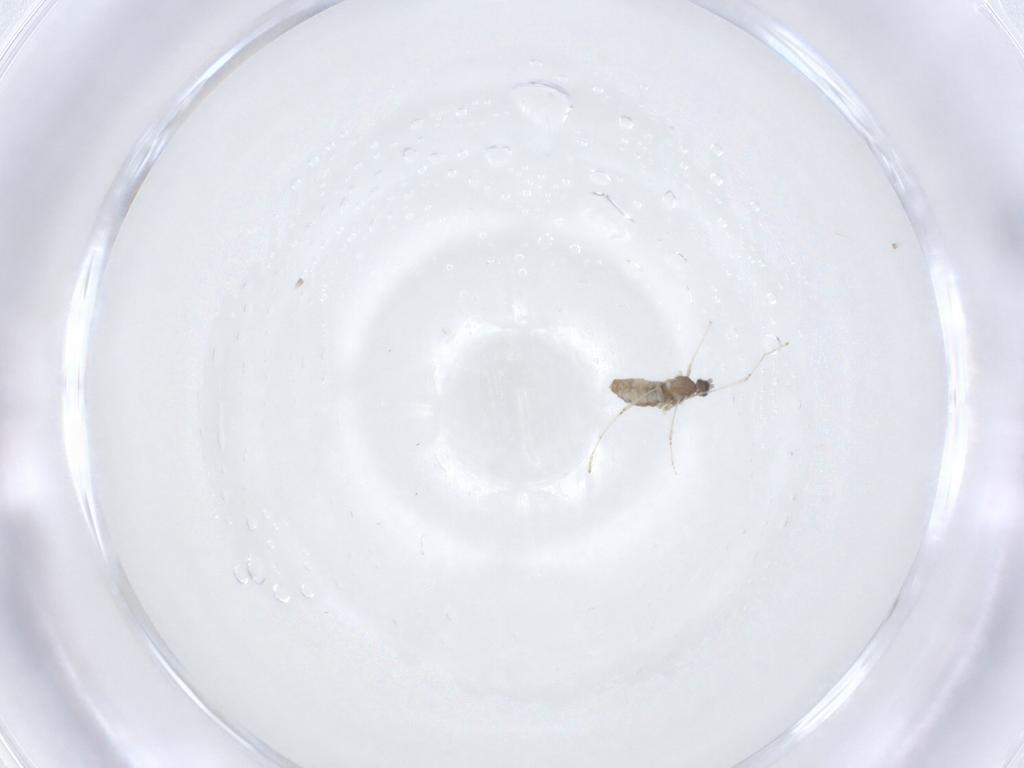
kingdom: Animalia
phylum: Arthropoda
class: Insecta
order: Diptera
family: Cecidomyiidae
